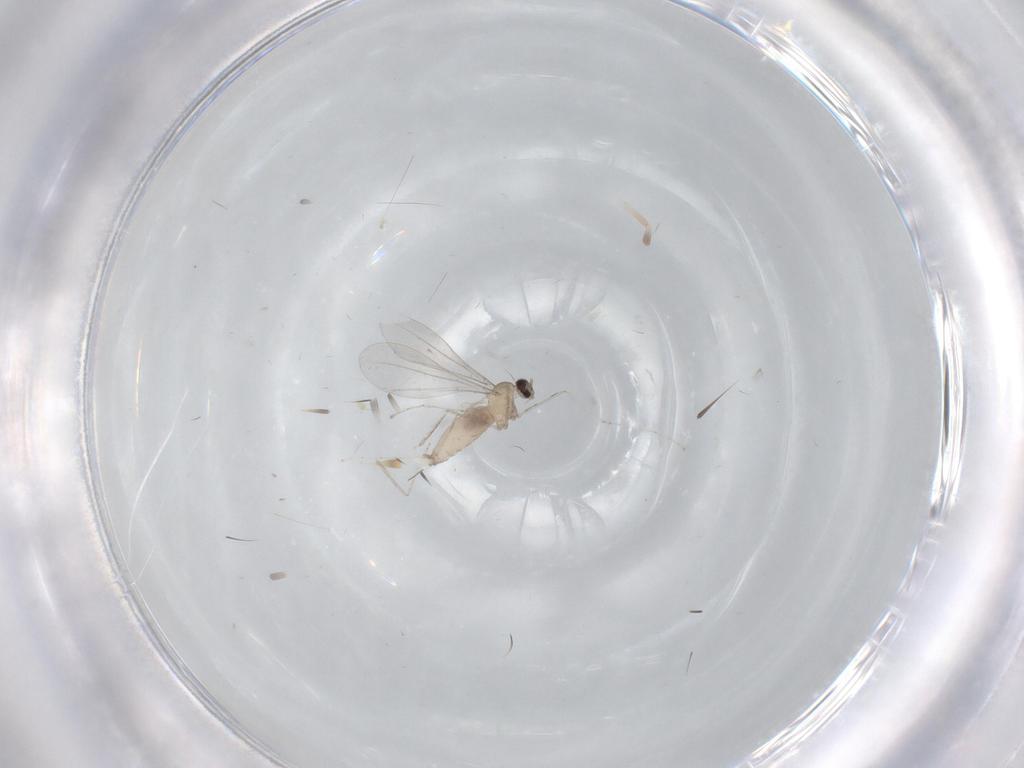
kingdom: Animalia
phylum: Arthropoda
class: Insecta
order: Diptera
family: Cecidomyiidae
